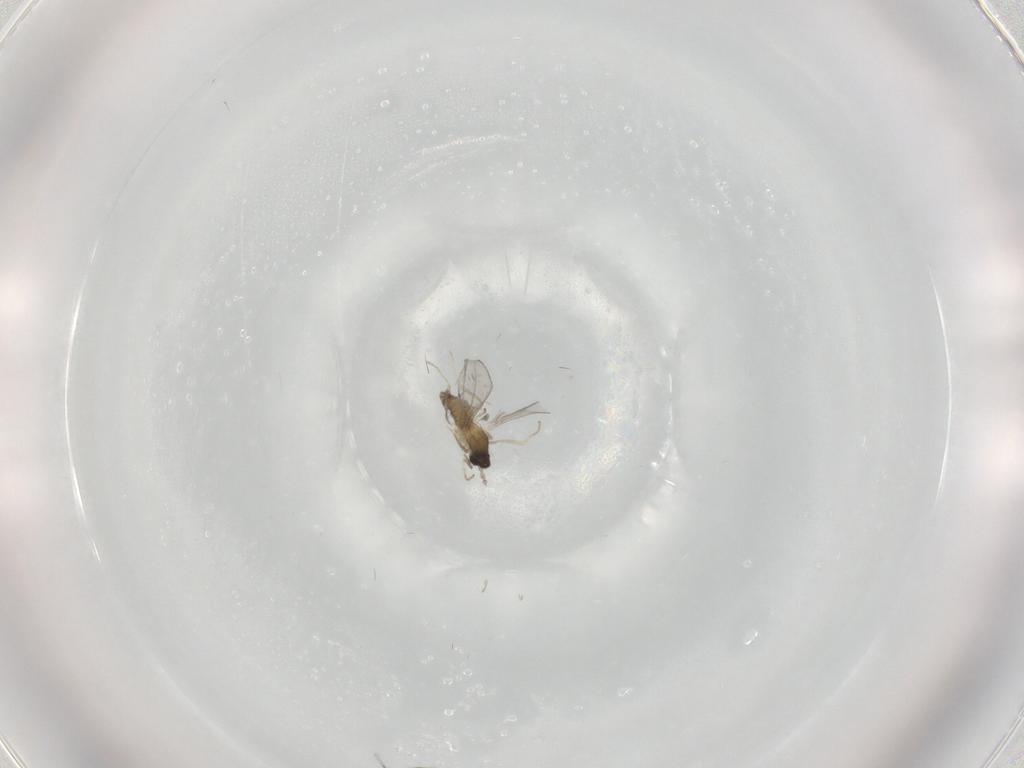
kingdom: Animalia
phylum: Arthropoda
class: Insecta
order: Diptera
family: Cecidomyiidae
